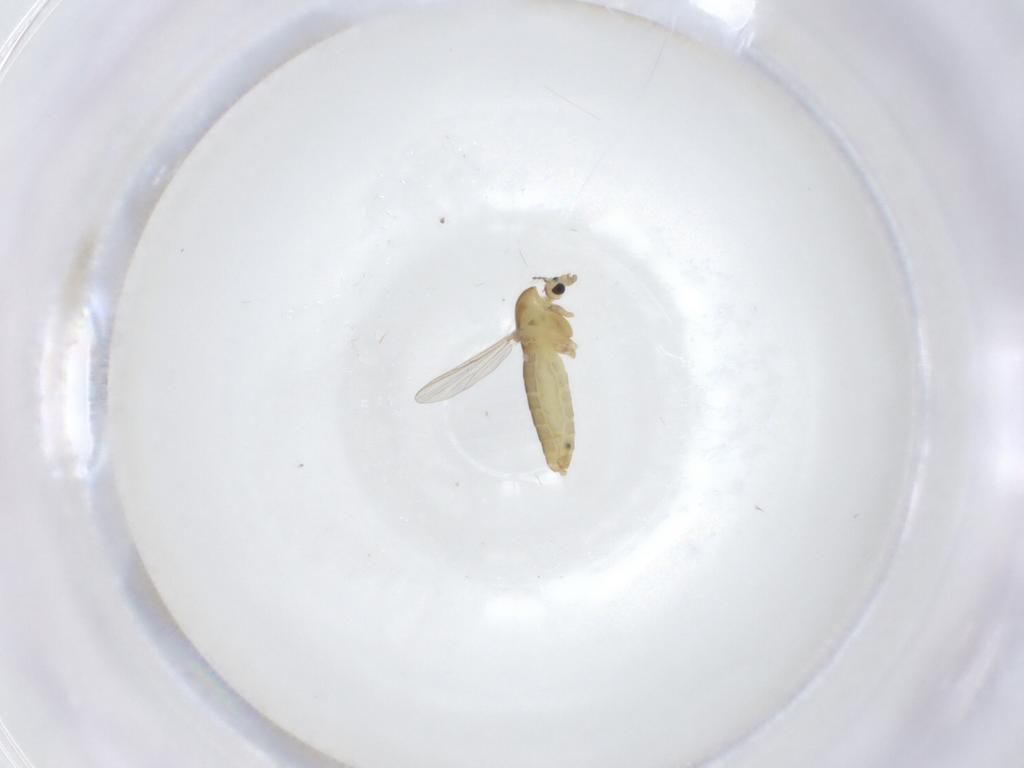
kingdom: Animalia
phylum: Arthropoda
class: Insecta
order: Diptera
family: Chironomidae
